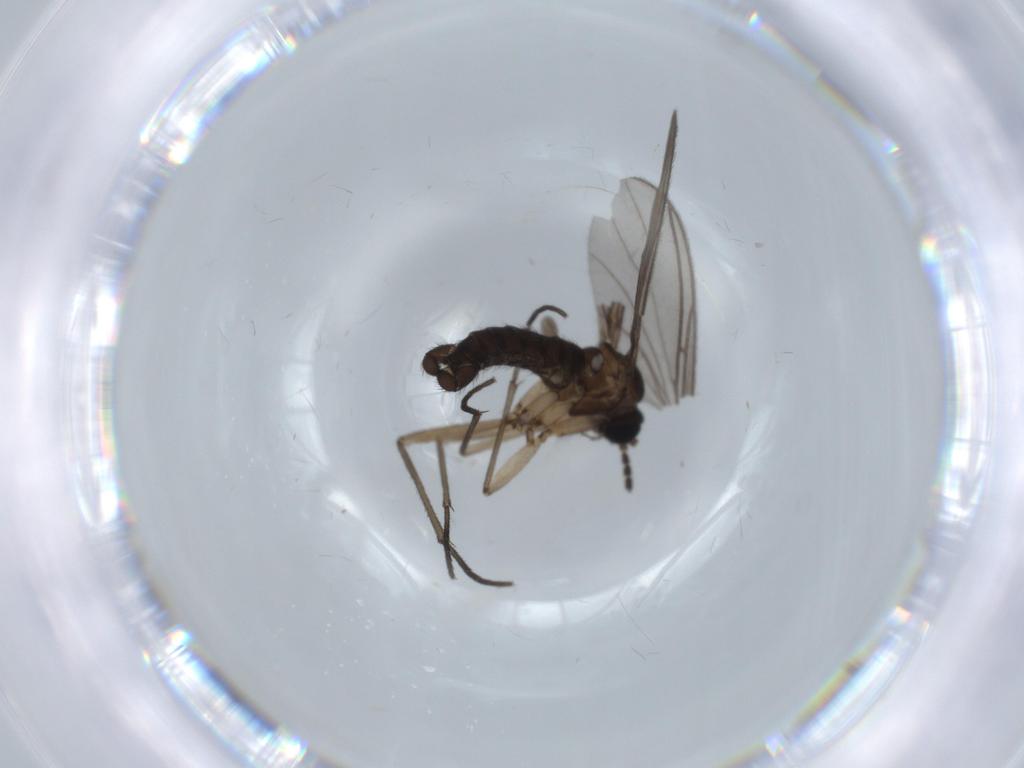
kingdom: Animalia
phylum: Arthropoda
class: Insecta
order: Diptera
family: Sciaridae
